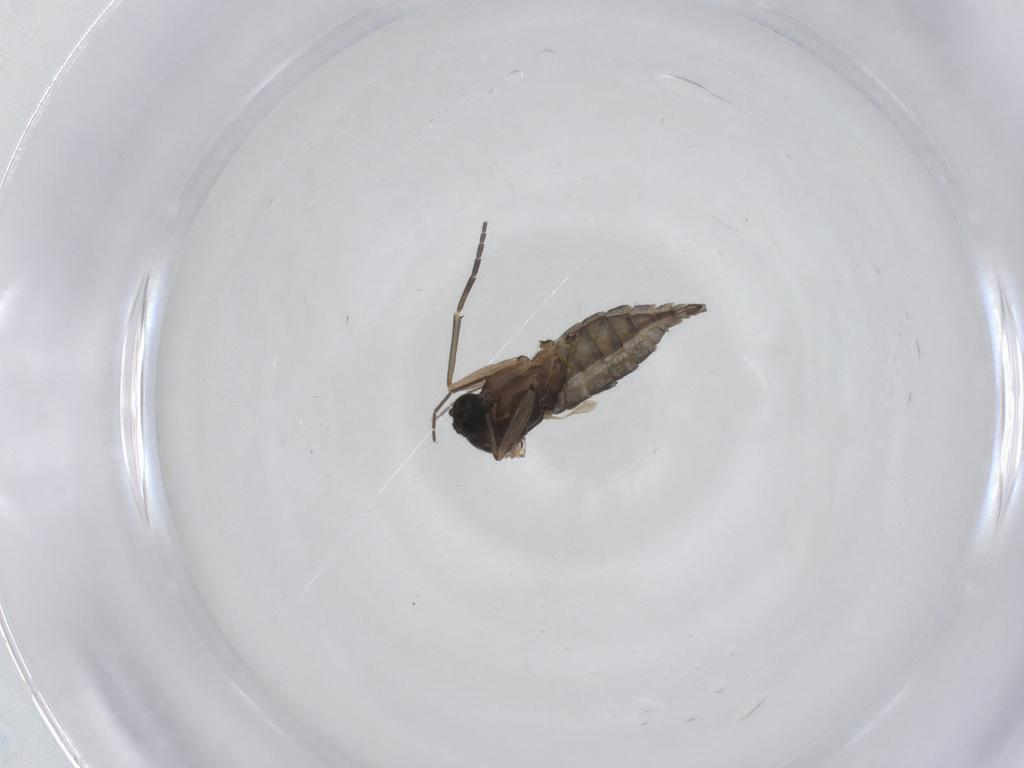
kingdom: Animalia
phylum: Arthropoda
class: Insecta
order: Diptera
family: Sciaridae
